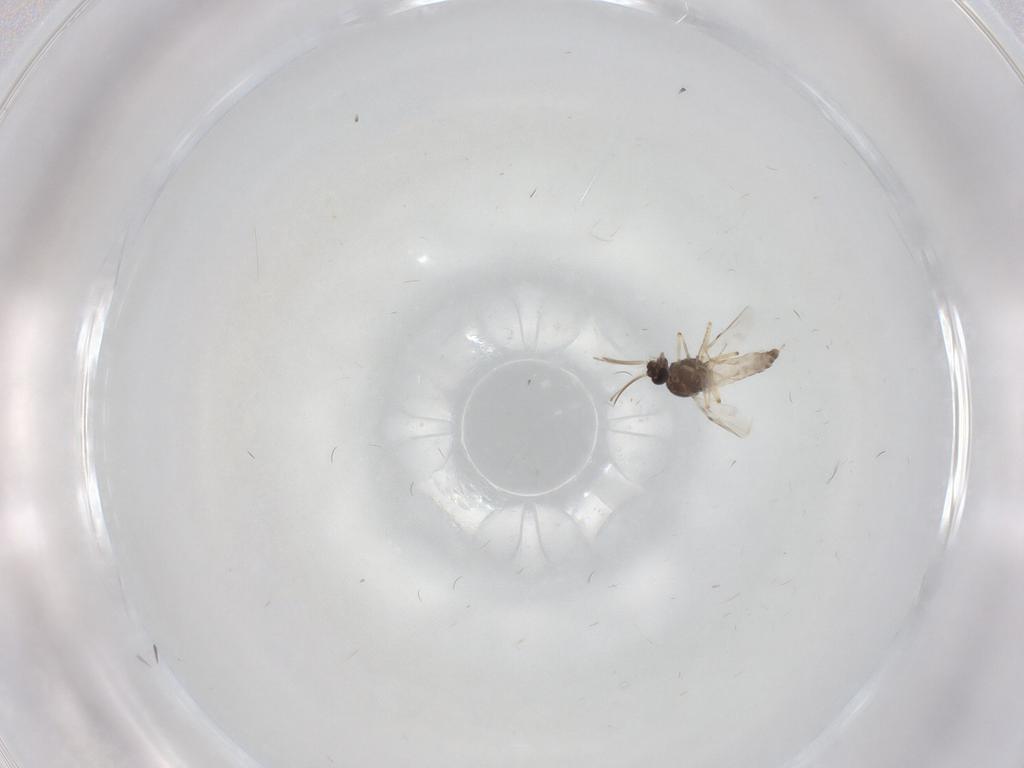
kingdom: Animalia
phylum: Arthropoda
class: Insecta
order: Diptera
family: Ceratopogonidae
